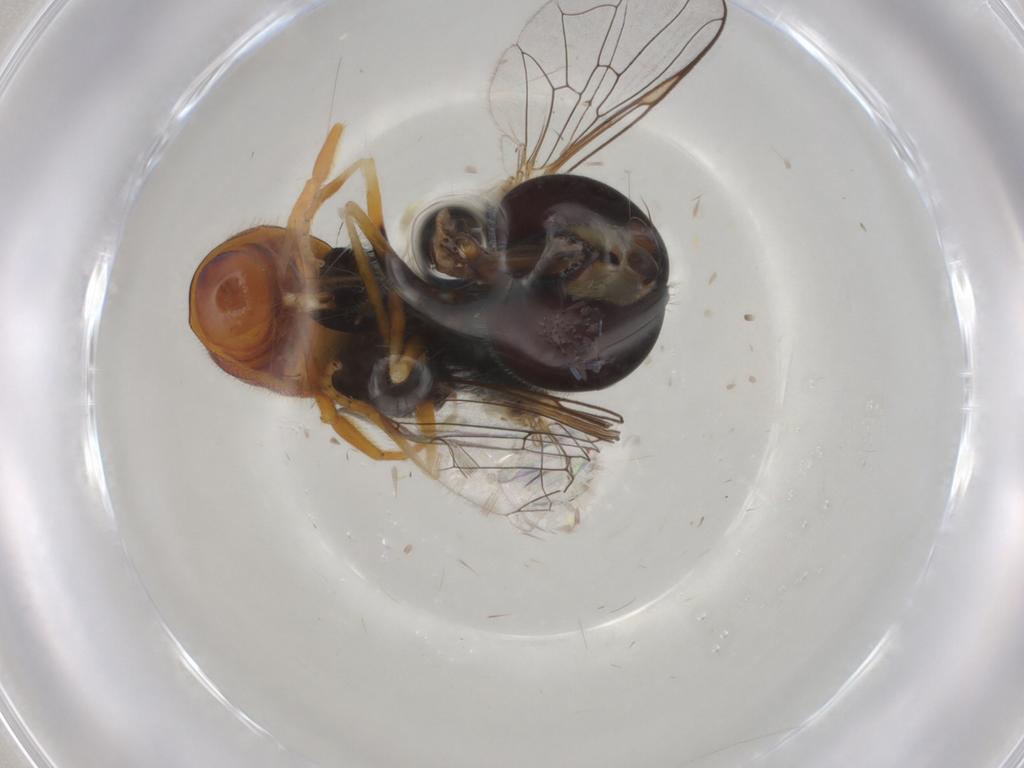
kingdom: Animalia
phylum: Arthropoda
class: Insecta
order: Diptera
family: Syrphidae
